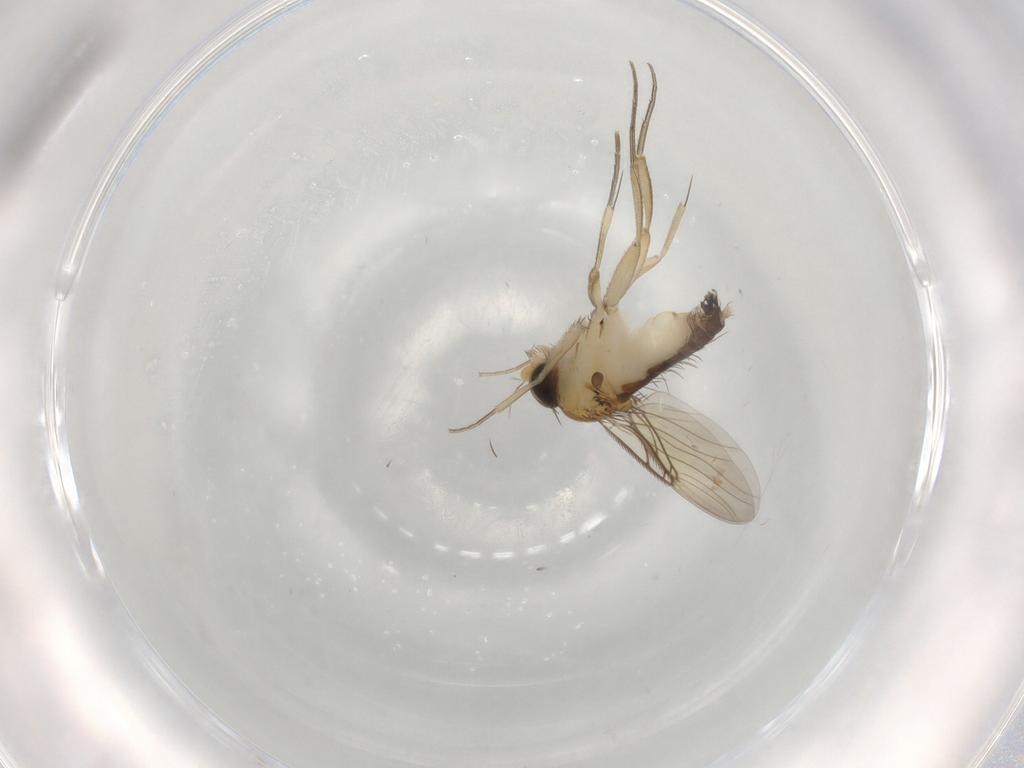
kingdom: Animalia
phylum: Arthropoda
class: Insecta
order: Diptera
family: Phoridae
